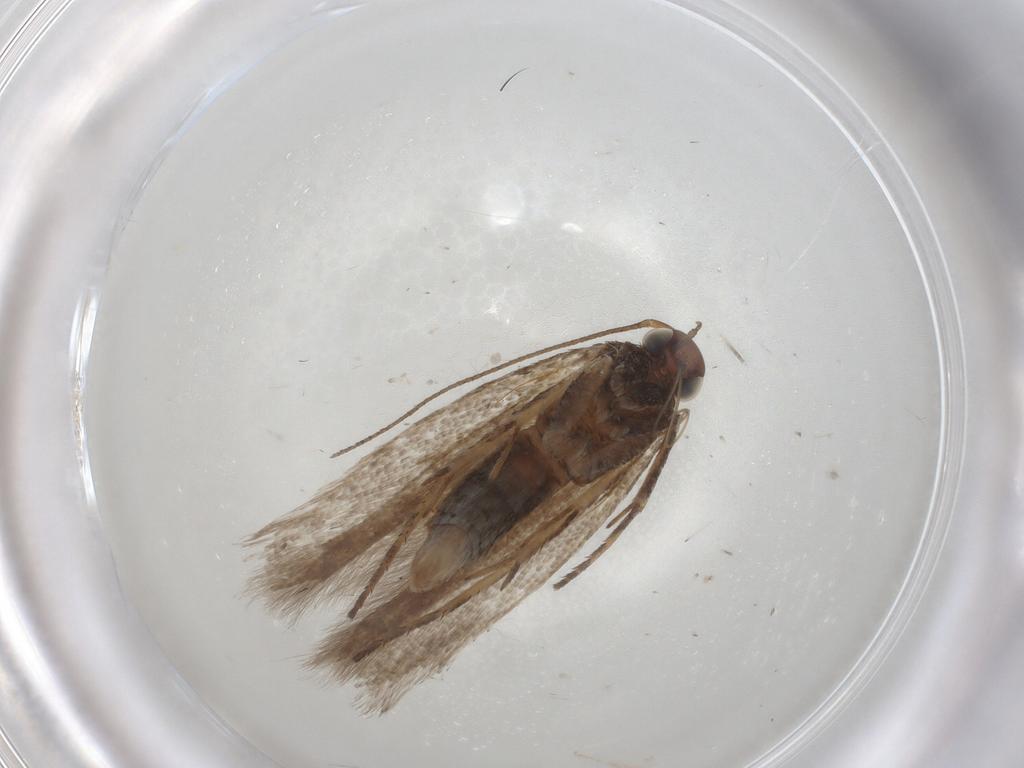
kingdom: Animalia
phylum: Arthropoda
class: Insecta
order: Lepidoptera
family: Gelechiidae
